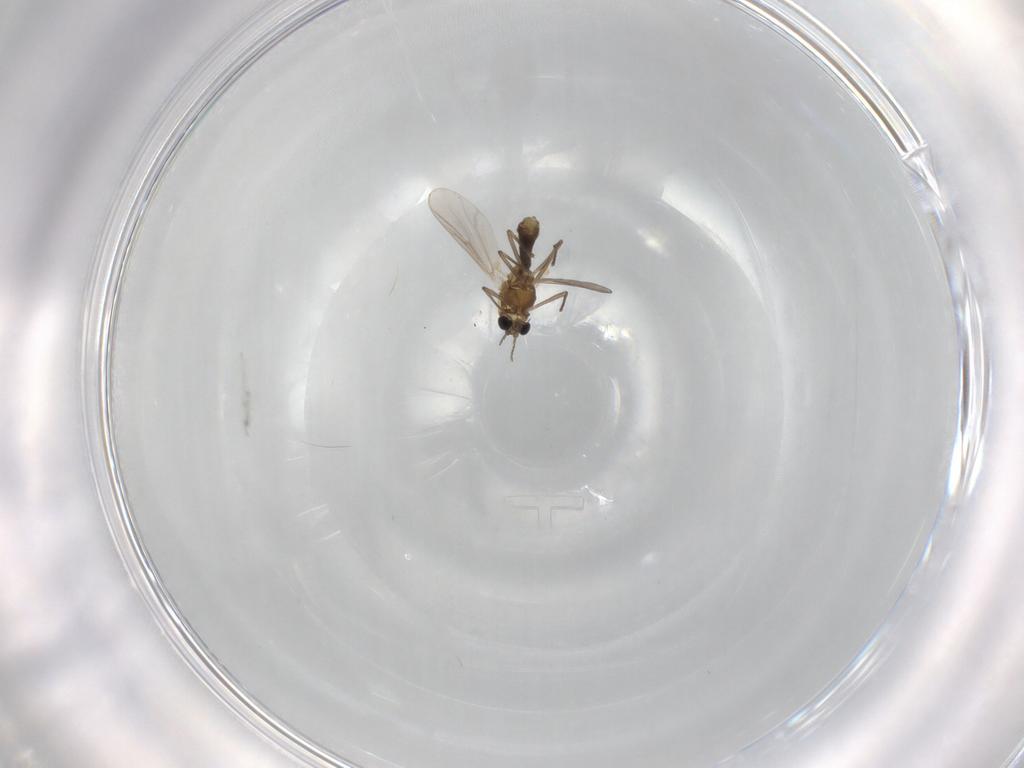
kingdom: Animalia
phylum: Arthropoda
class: Insecta
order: Diptera
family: Chironomidae
